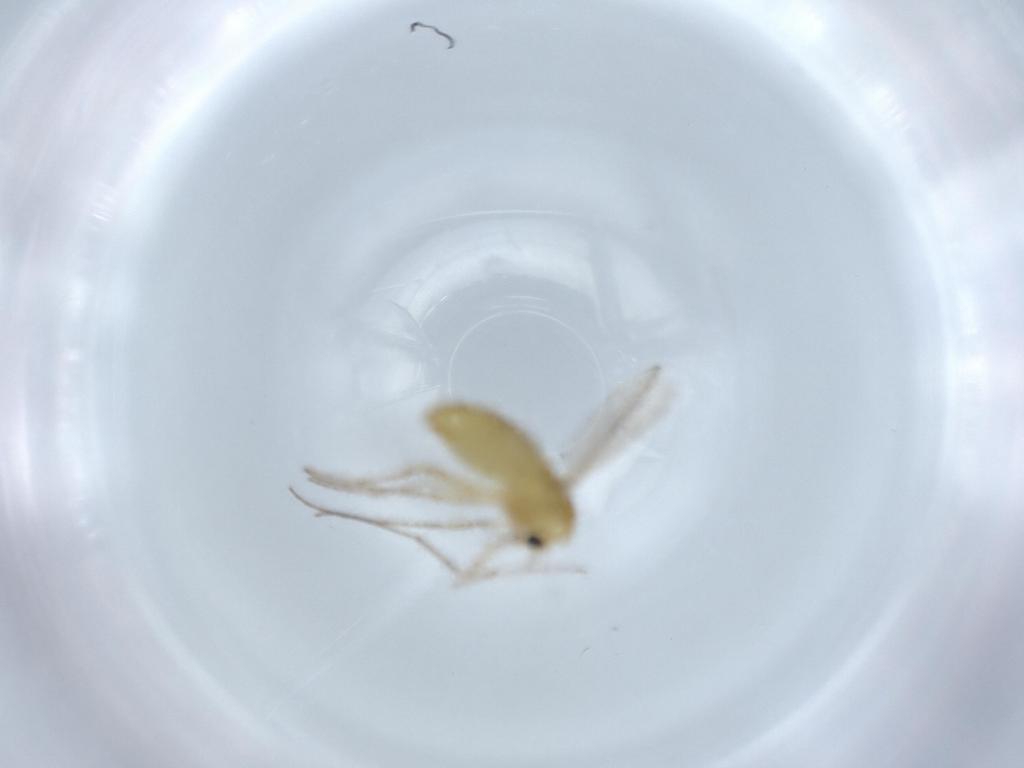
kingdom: Animalia
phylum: Arthropoda
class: Insecta
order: Diptera
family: Chironomidae
